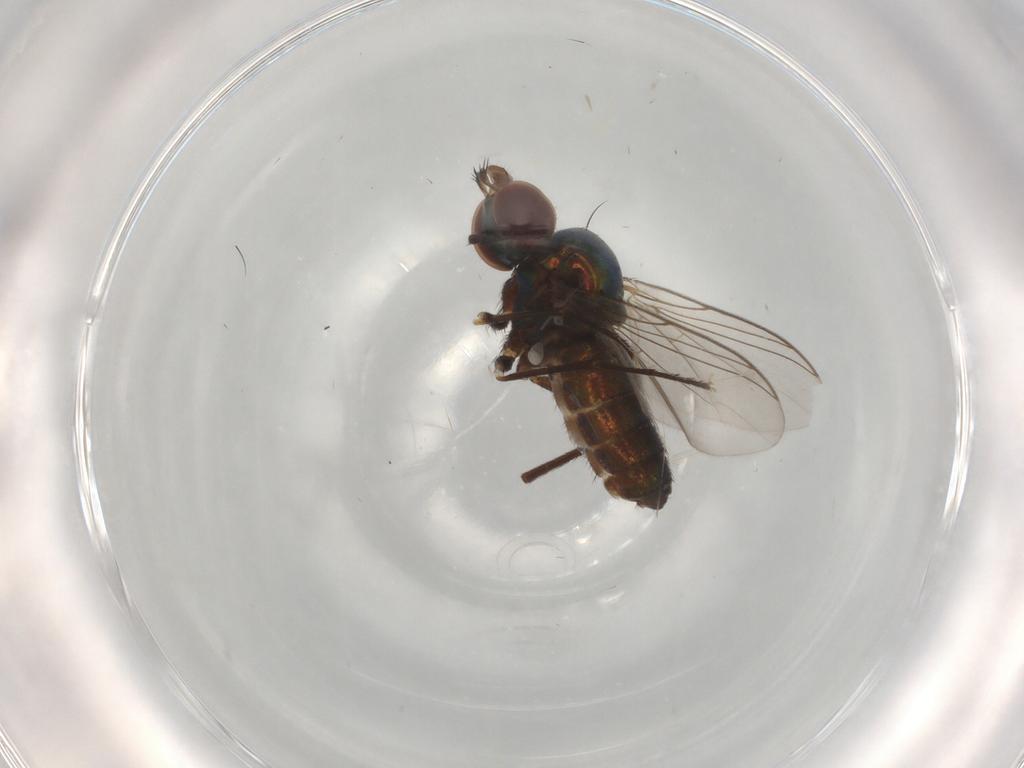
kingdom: Animalia
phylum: Arthropoda
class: Insecta
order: Diptera
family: Dolichopodidae
